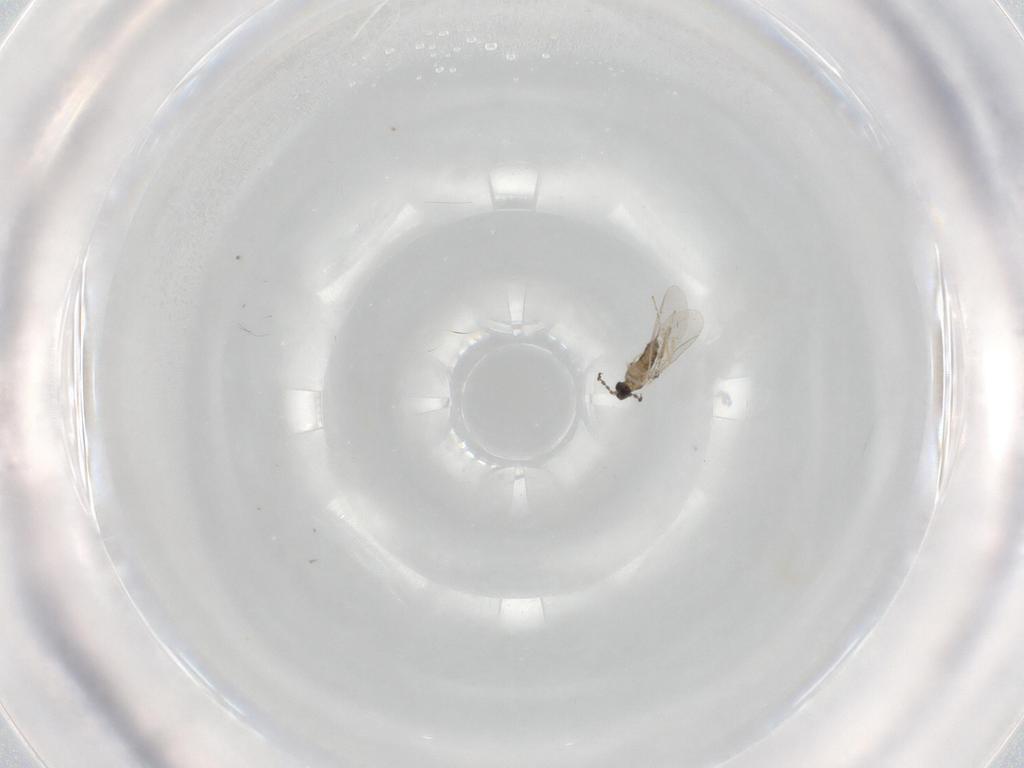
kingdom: Animalia
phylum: Arthropoda
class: Insecta
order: Diptera
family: Cecidomyiidae
